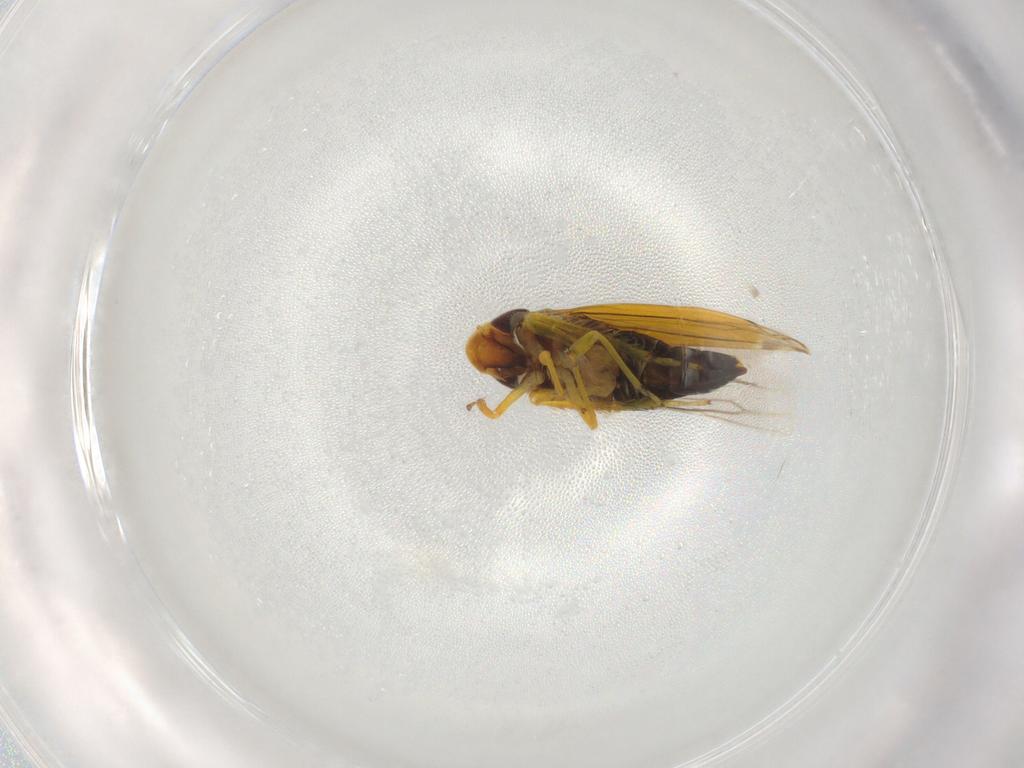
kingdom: Animalia
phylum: Arthropoda
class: Insecta
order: Hemiptera
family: Cicadellidae
